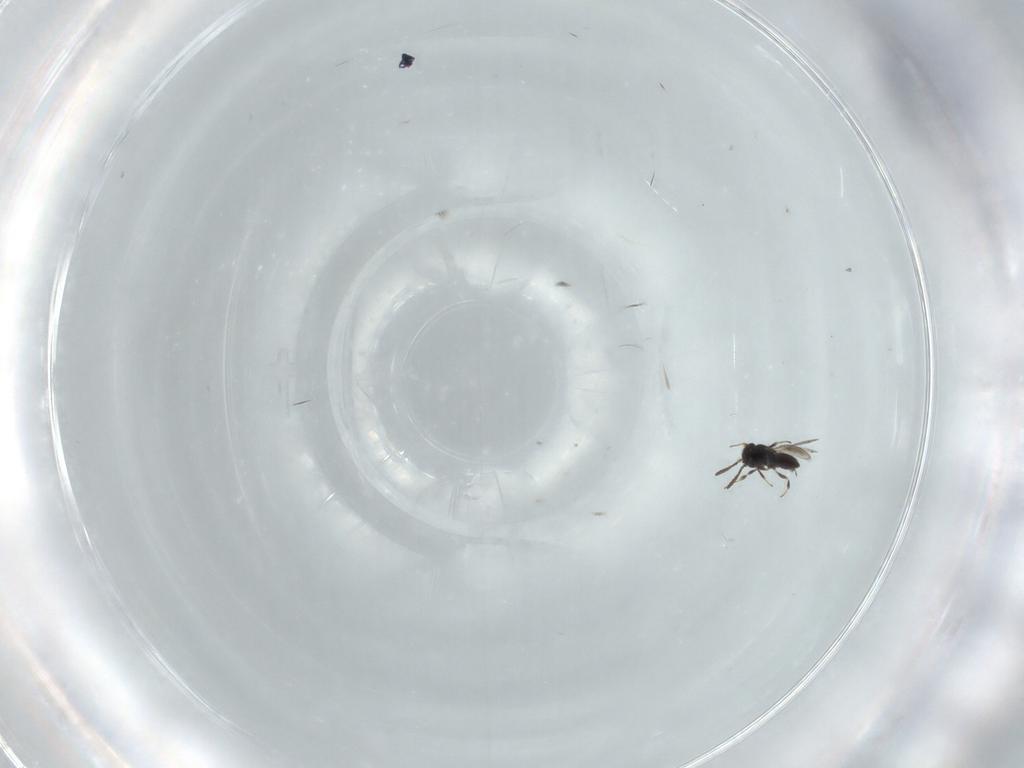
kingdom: Animalia
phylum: Arthropoda
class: Insecta
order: Hymenoptera
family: Scelionidae
